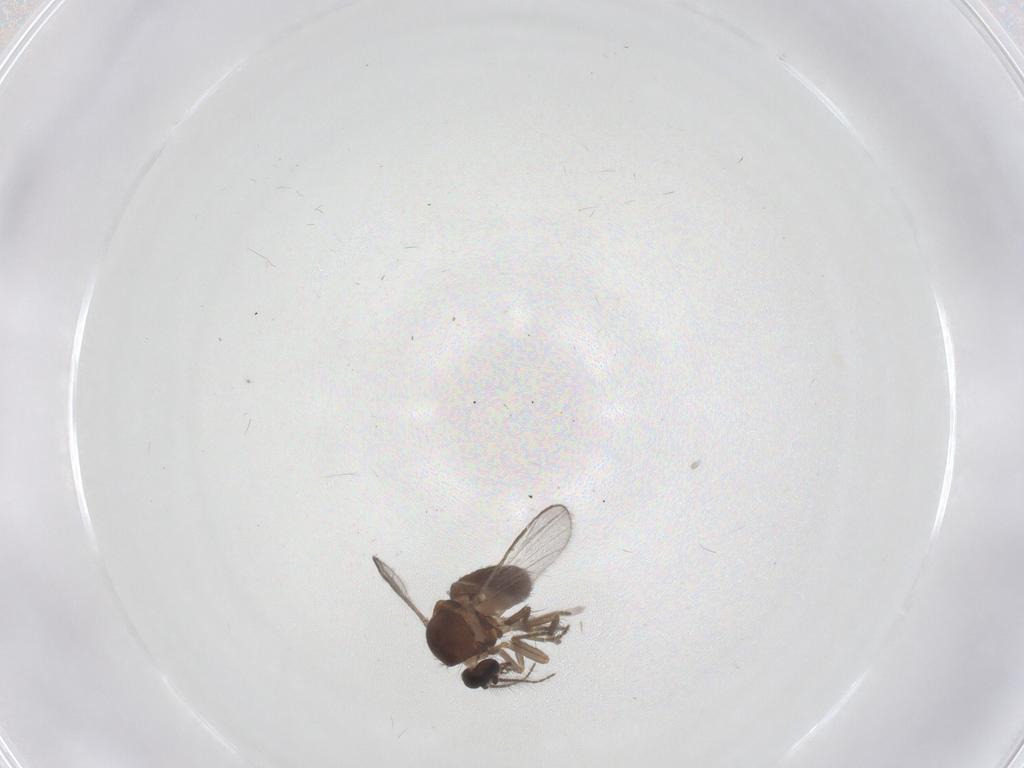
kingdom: Animalia
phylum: Arthropoda
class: Insecta
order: Diptera
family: Ceratopogonidae
